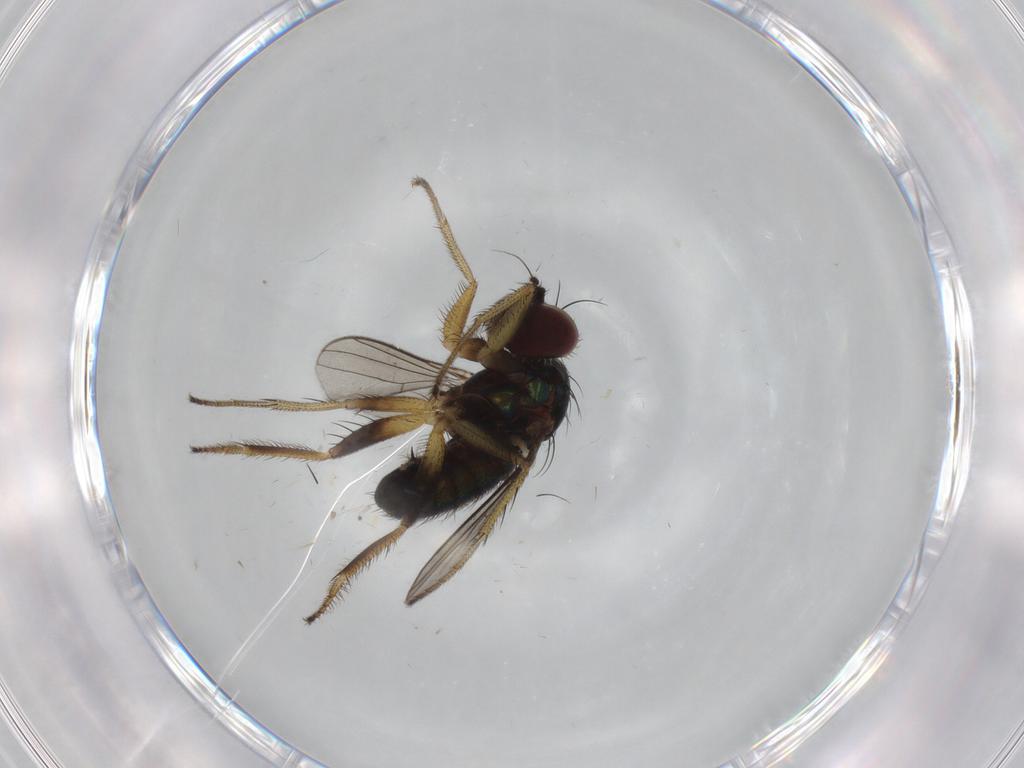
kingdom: Animalia
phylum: Arthropoda
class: Insecta
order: Diptera
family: Dolichopodidae
